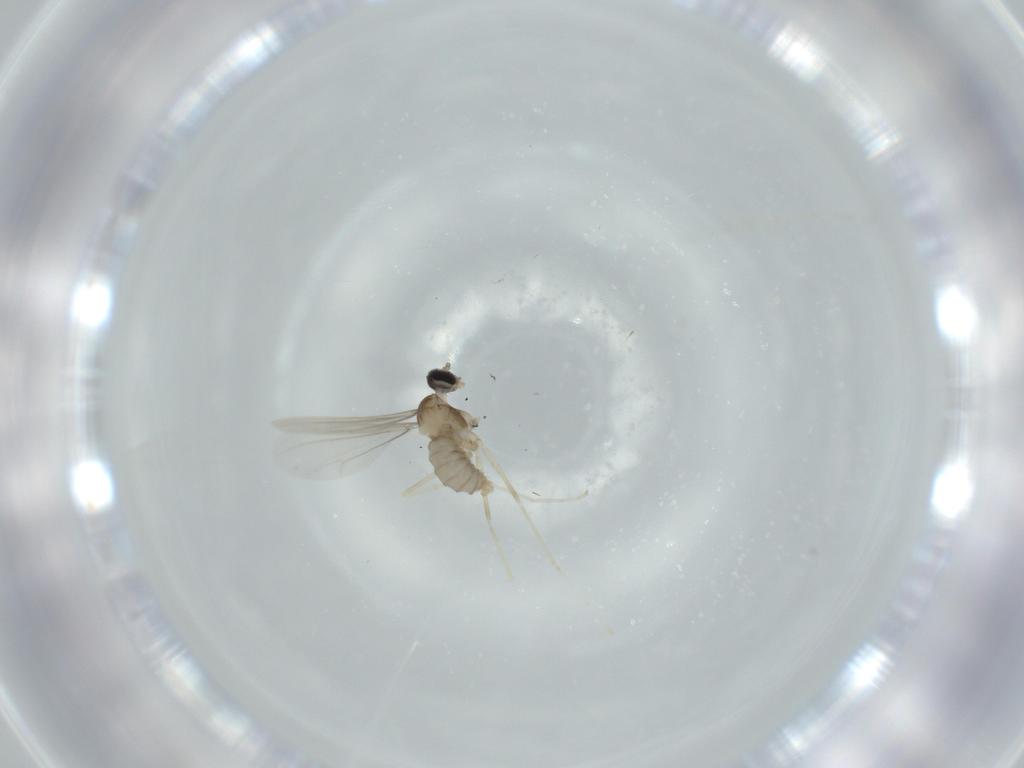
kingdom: Animalia
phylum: Arthropoda
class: Insecta
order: Diptera
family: Cecidomyiidae
